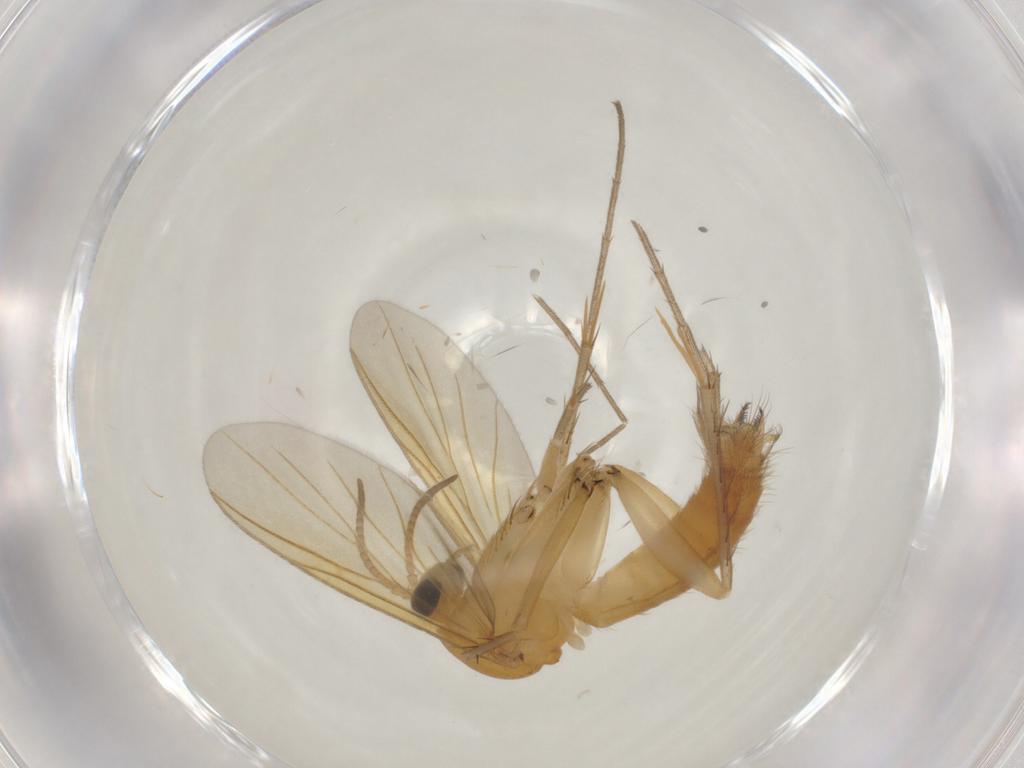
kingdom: Animalia
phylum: Arthropoda
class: Insecta
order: Diptera
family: Mycetophilidae
